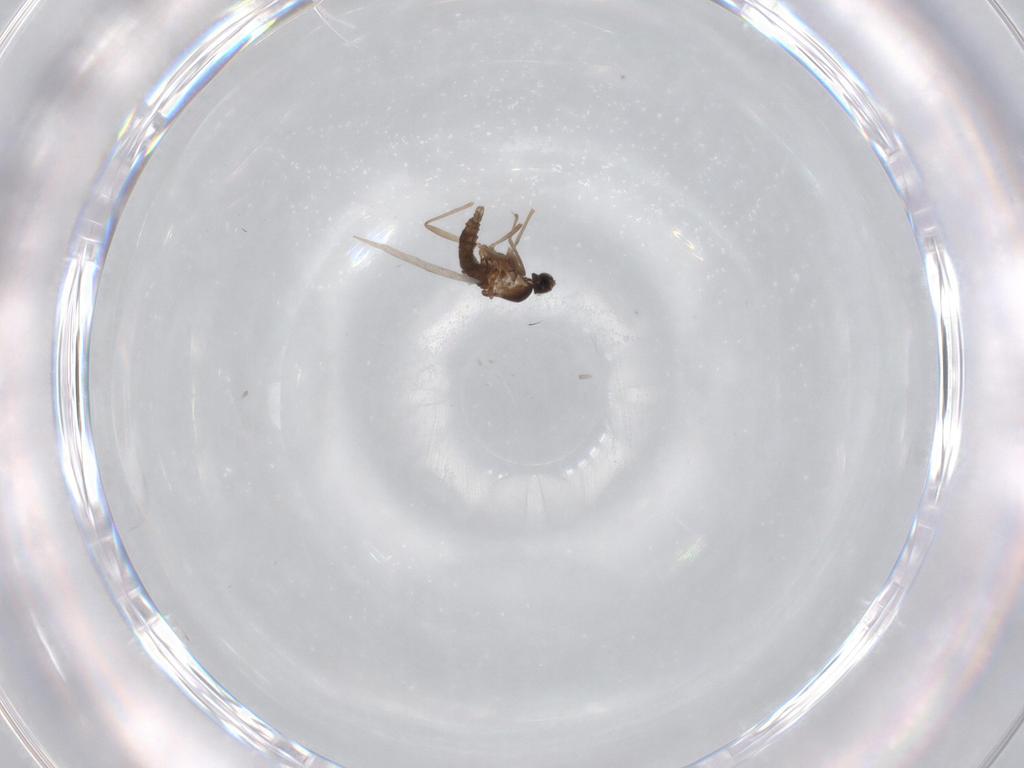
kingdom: Animalia
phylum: Arthropoda
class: Insecta
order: Diptera
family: Cecidomyiidae
